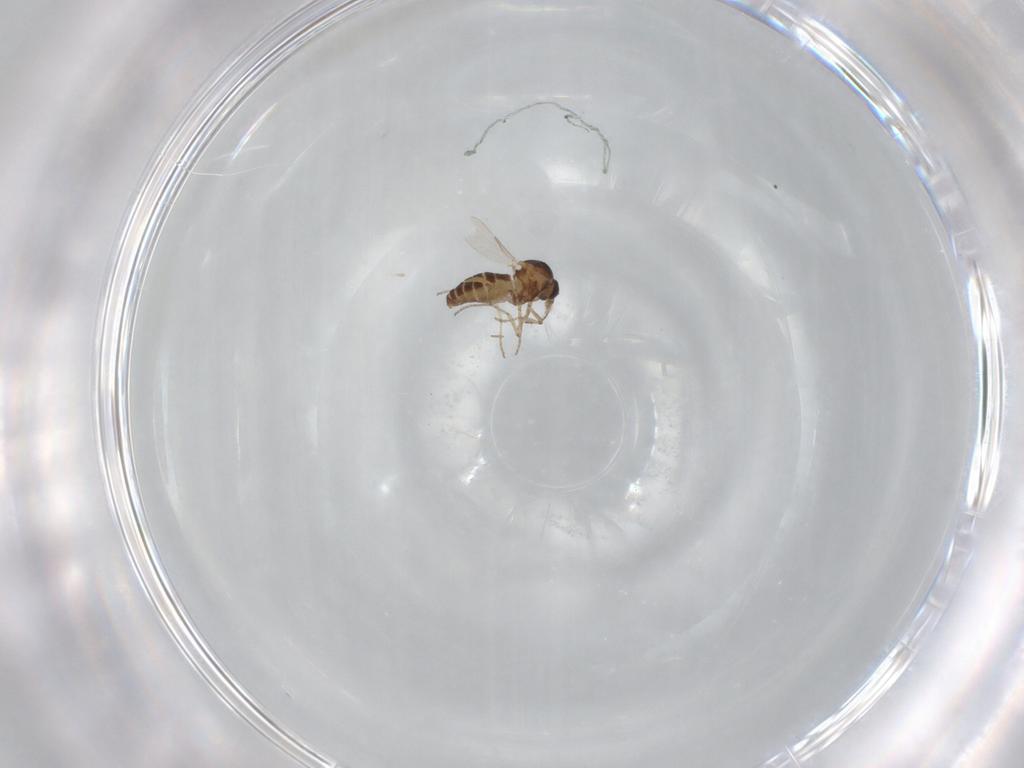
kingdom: Animalia
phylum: Arthropoda
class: Insecta
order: Diptera
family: Ceratopogonidae
